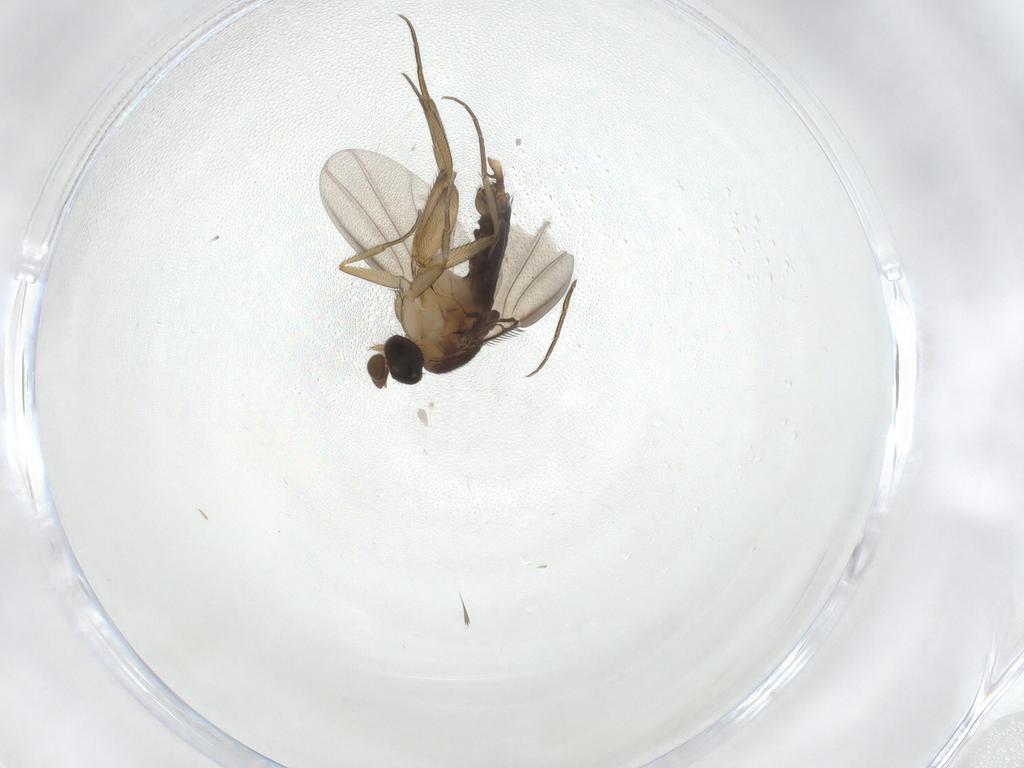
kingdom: Animalia
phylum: Arthropoda
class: Insecta
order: Diptera
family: Phoridae
